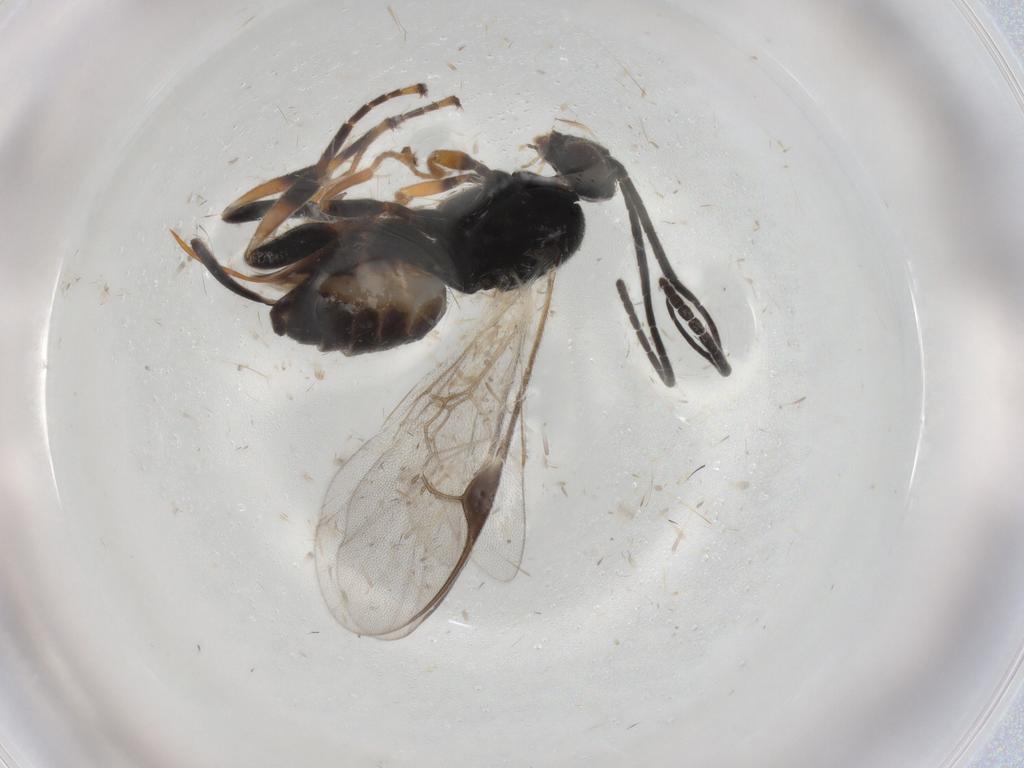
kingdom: Animalia
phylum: Arthropoda
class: Insecta
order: Hymenoptera
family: Braconidae
